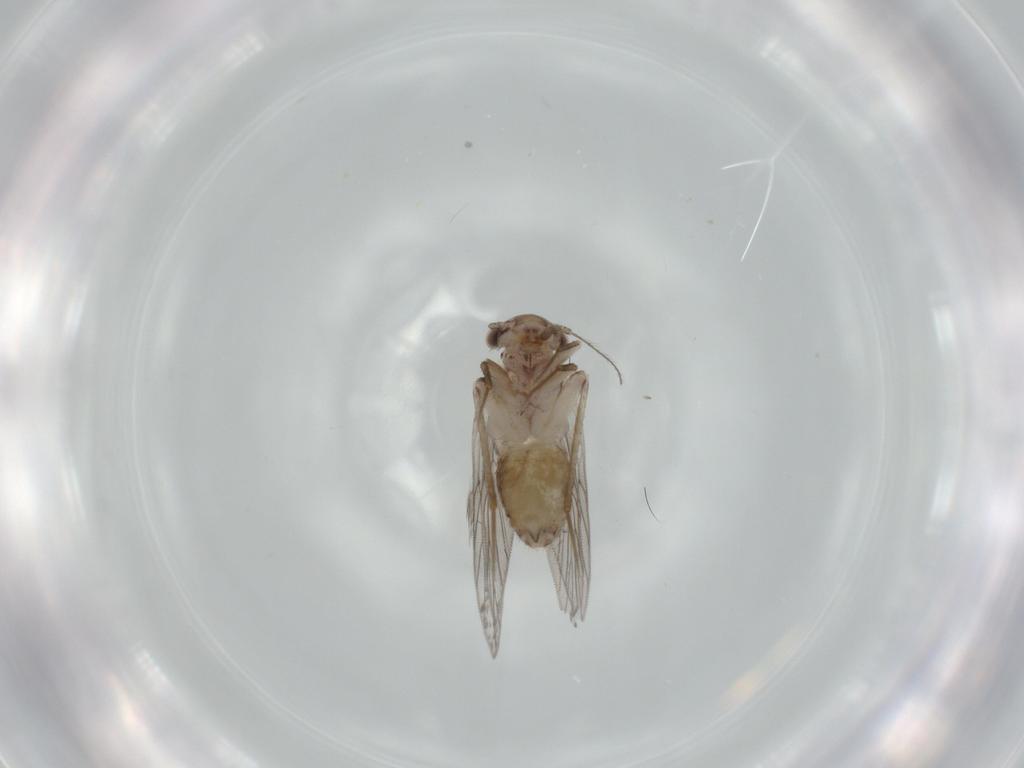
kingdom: Animalia
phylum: Arthropoda
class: Insecta
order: Psocodea
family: Lepidopsocidae
